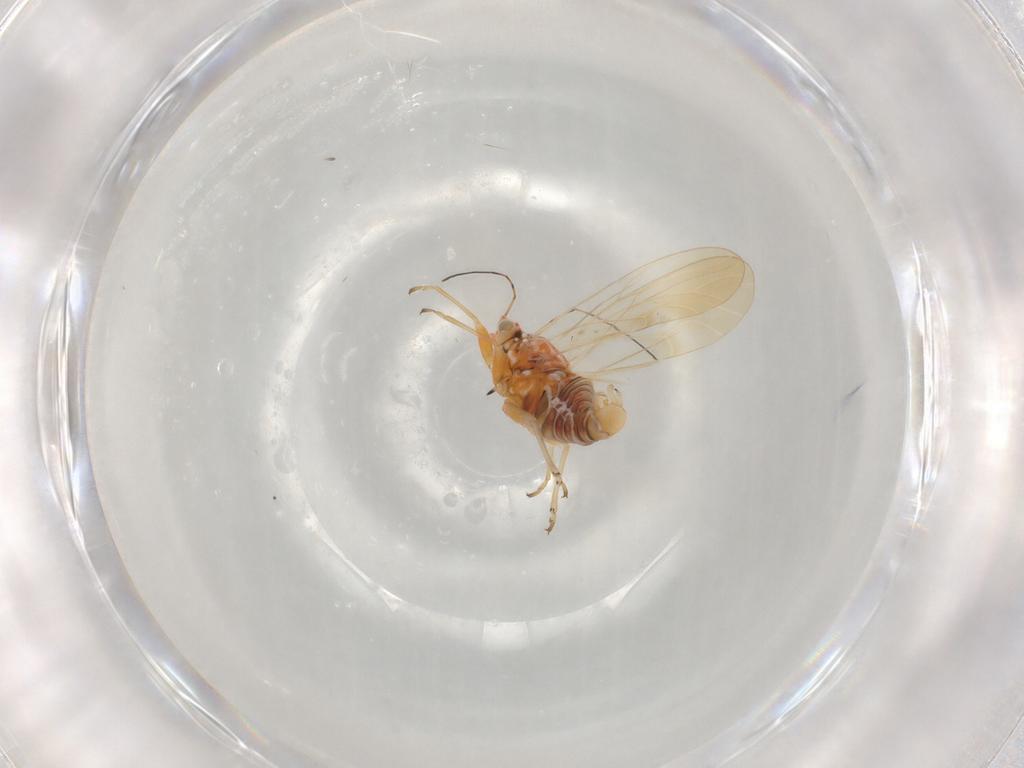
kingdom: Animalia
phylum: Arthropoda
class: Insecta
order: Hemiptera
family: Psyllidae
